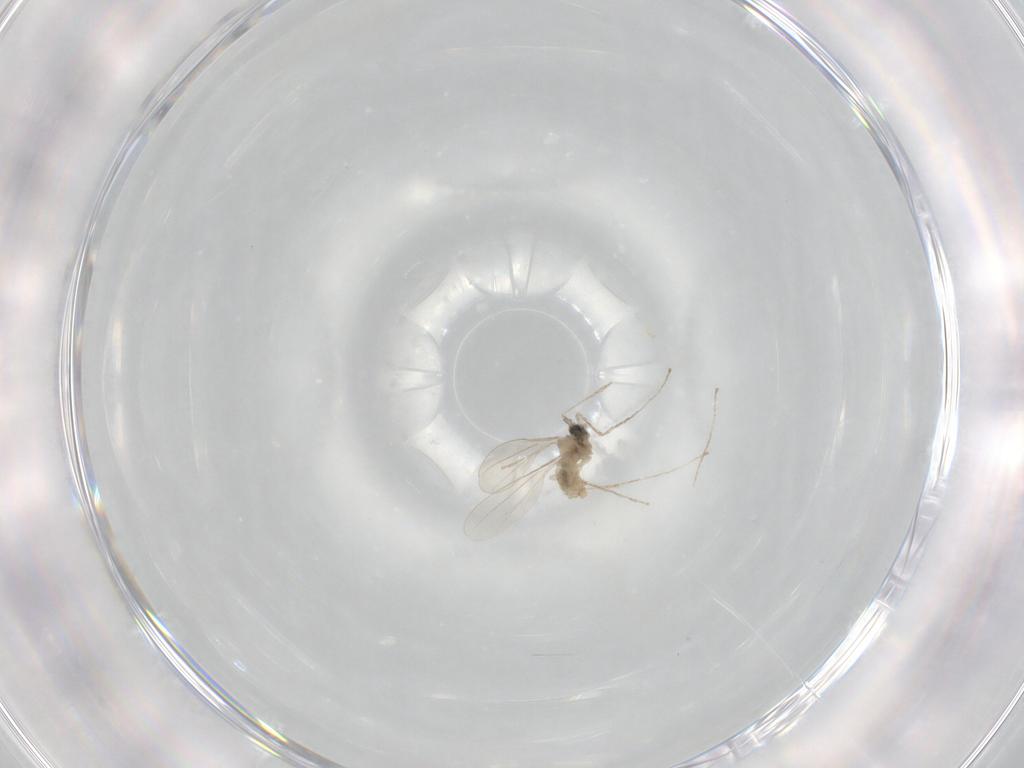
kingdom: Animalia
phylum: Arthropoda
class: Insecta
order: Diptera
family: Cecidomyiidae
